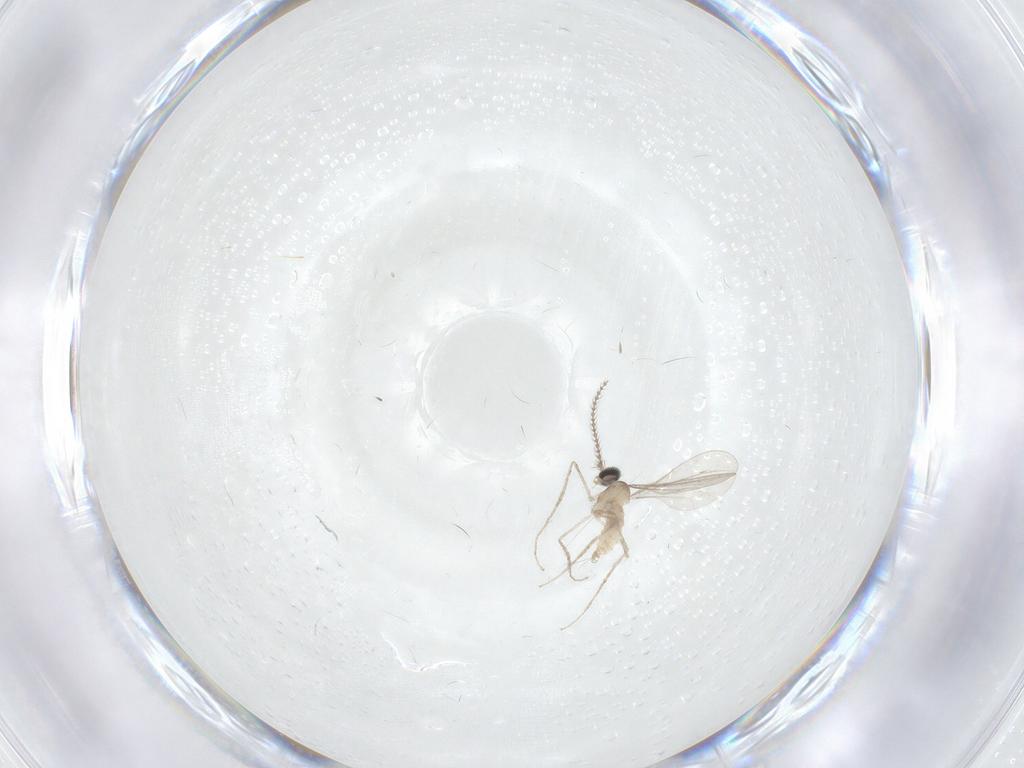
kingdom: Animalia
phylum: Arthropoda
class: Insecta
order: Diptera
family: Cecidomyiidae
